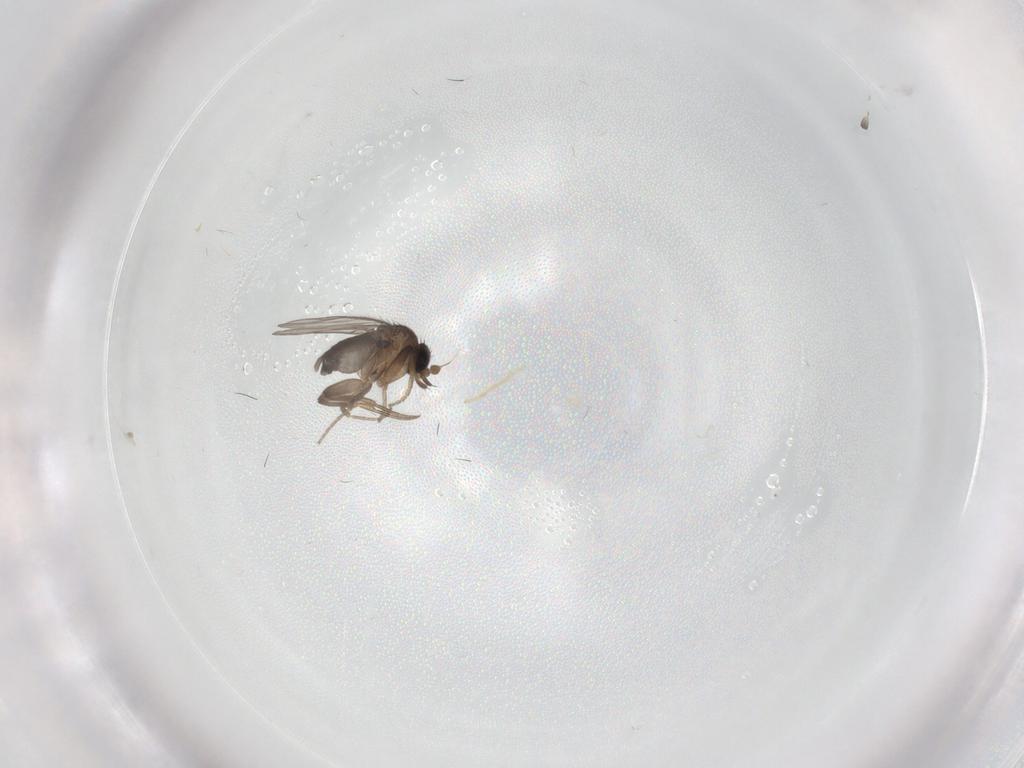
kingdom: Animalia
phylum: Arthropoda
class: Insecta
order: Diptera
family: Phoridae
